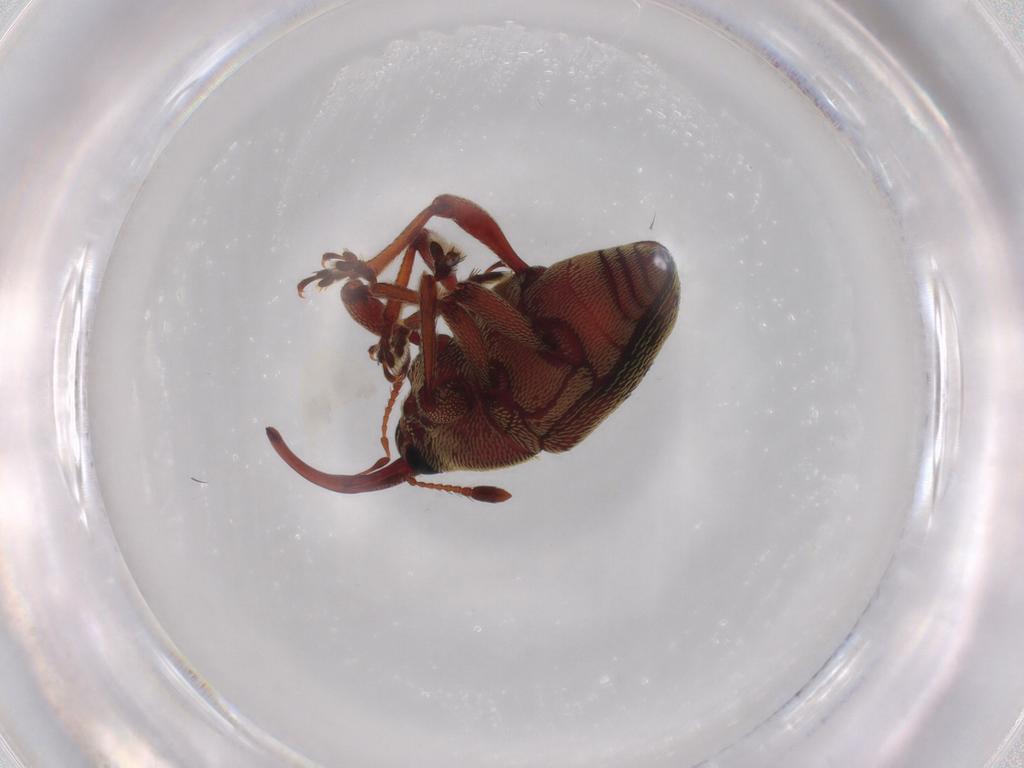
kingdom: Animalia
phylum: Arthropoda
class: Insecta
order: Coleoptera
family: Curculionidae
